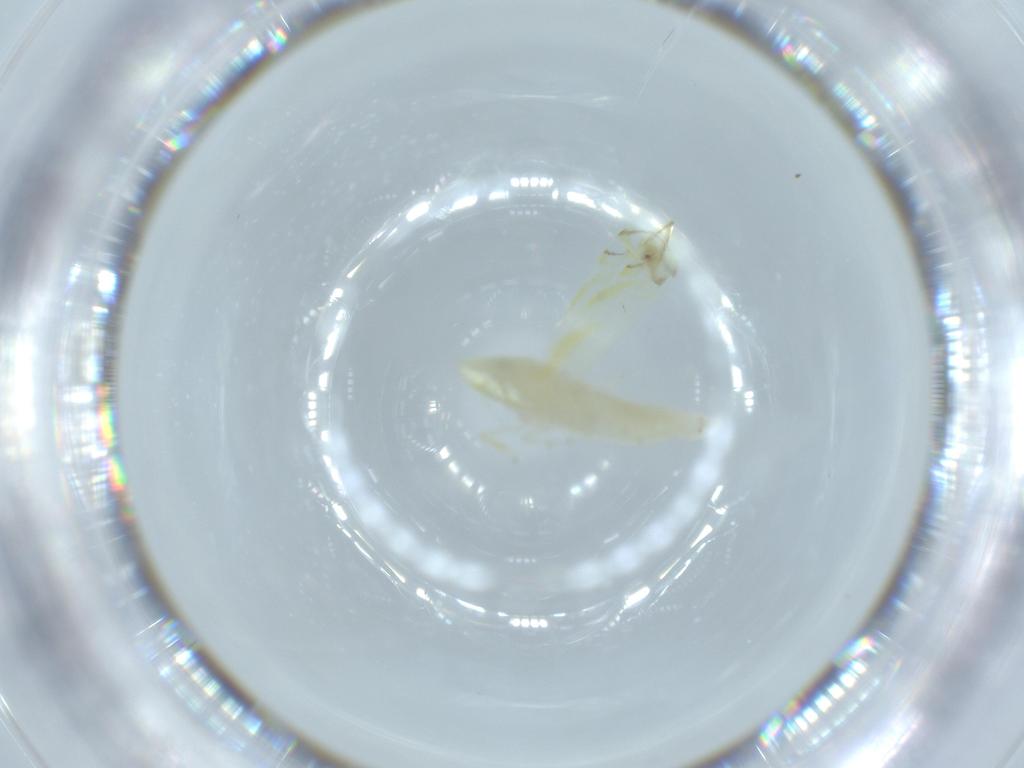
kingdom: Animalia
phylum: Arthropoda
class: Insecta
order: Hemiptera
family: Cicadellidae
